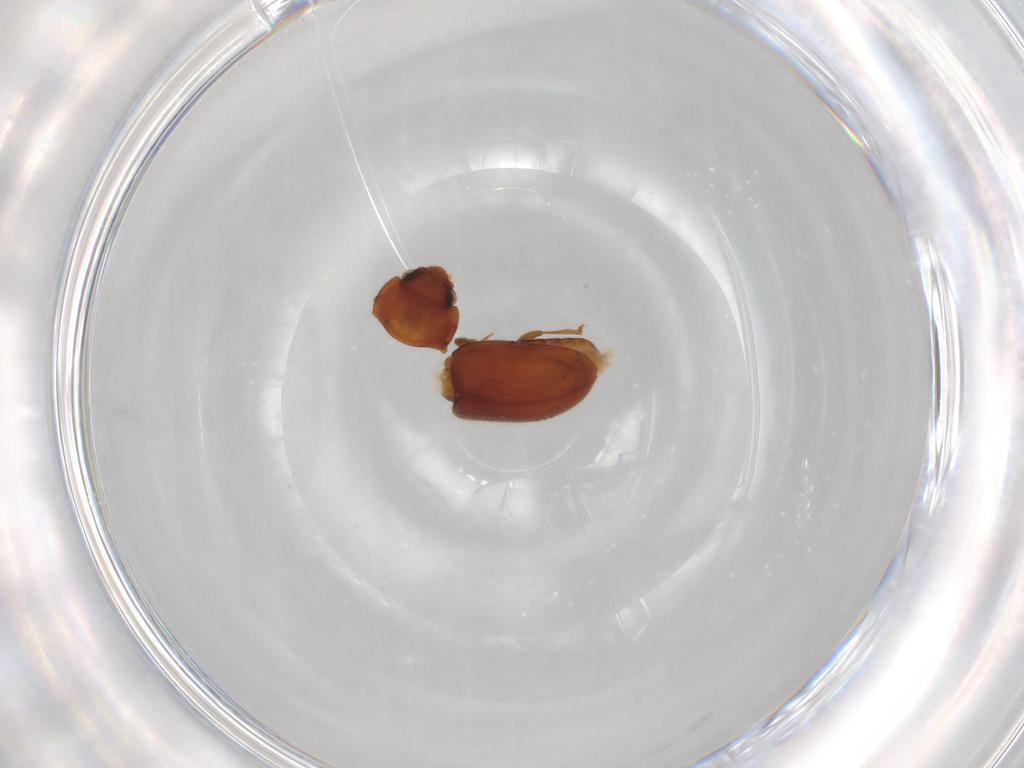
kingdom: Animalia
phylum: Arthropoda
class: Insecta
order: Coleoptera
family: Erotylidae
